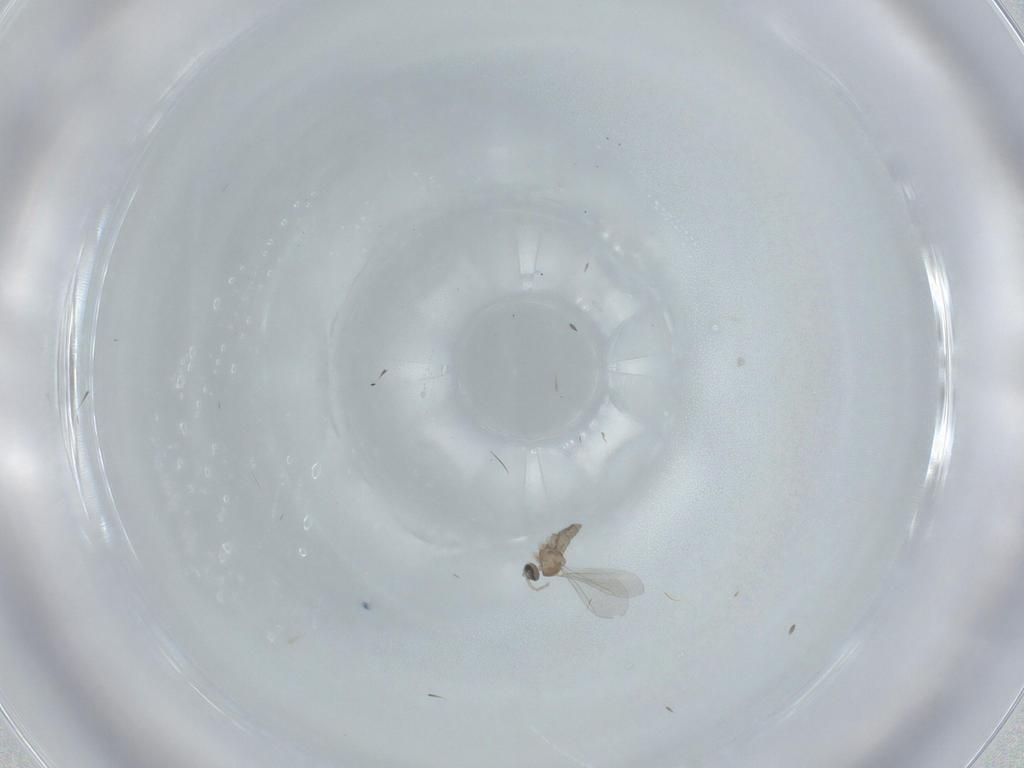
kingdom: Animalia
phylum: Arthropoda
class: Insecta
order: Diptera
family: Cecidomyiidae
